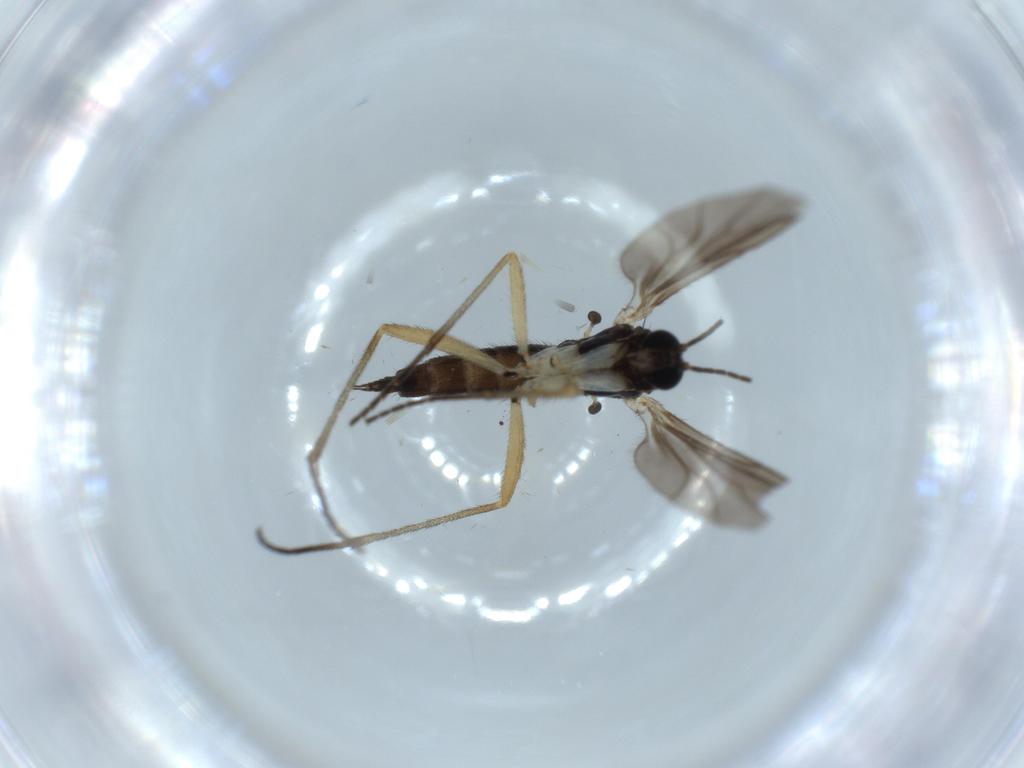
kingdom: Animalia
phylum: Arthropoda
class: Insecta
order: Diptera
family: Sciaridae
